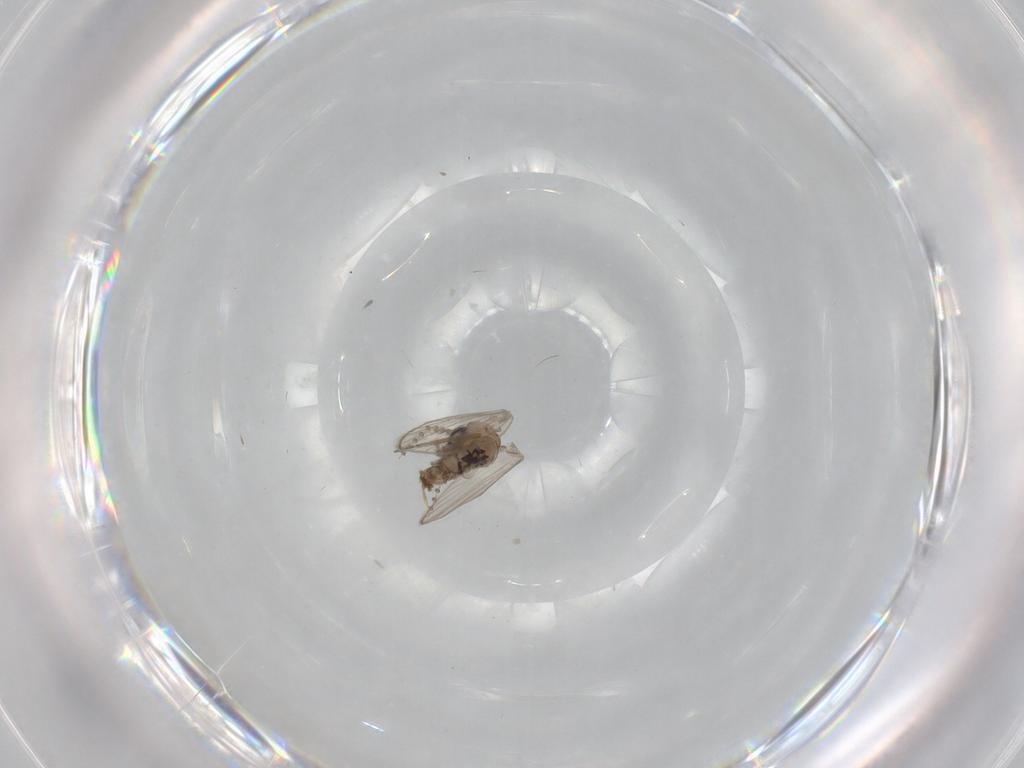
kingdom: Animalia
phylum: Arthropoda
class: Insecta
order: Diptera
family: Psychodidae
